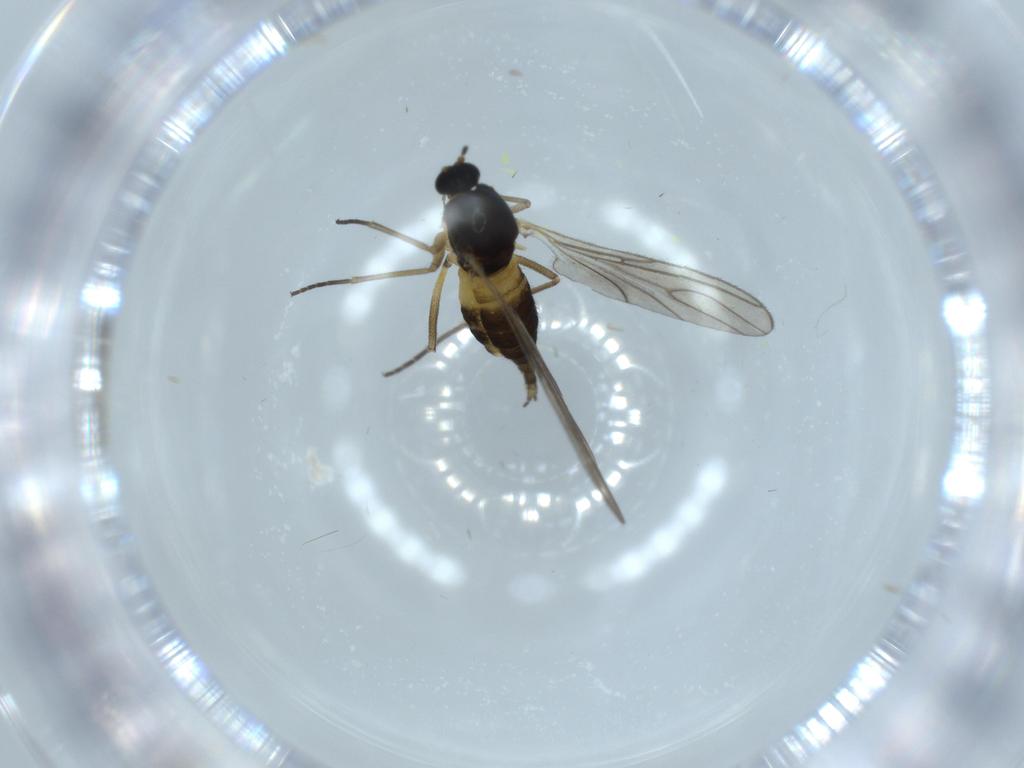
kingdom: Animalia
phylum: Arthropoda
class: Insecta
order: Diptera
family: Sciaridae
